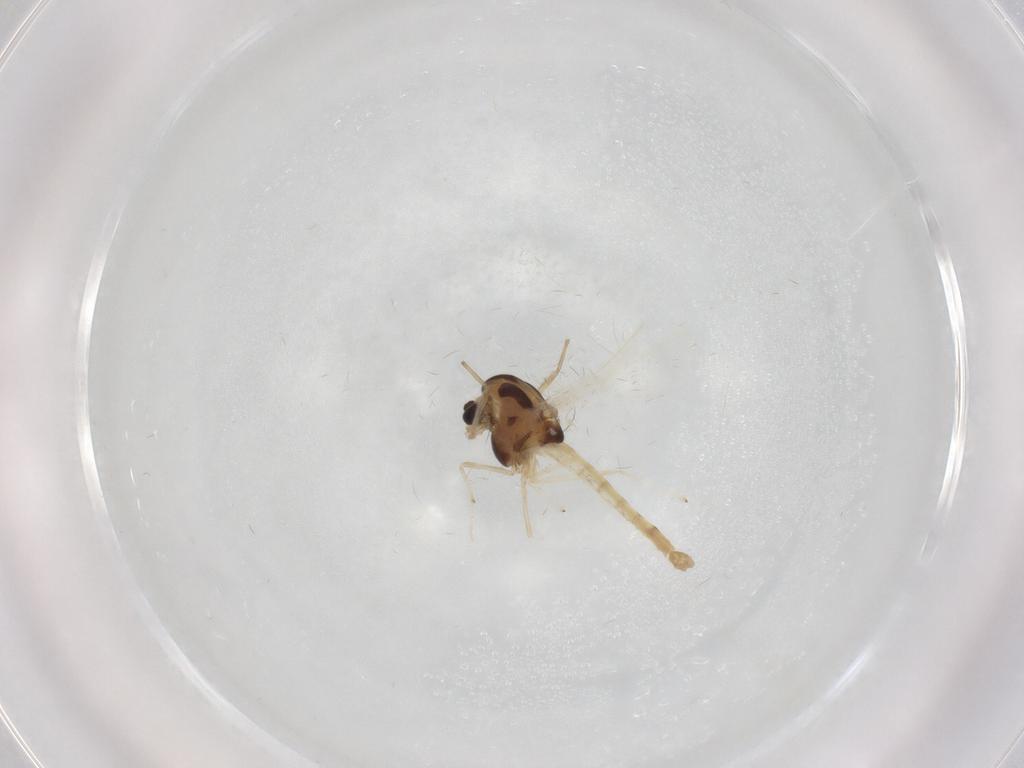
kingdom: Animalia
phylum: Arthropoda
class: Insecta
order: Diptera
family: Chironomidae
